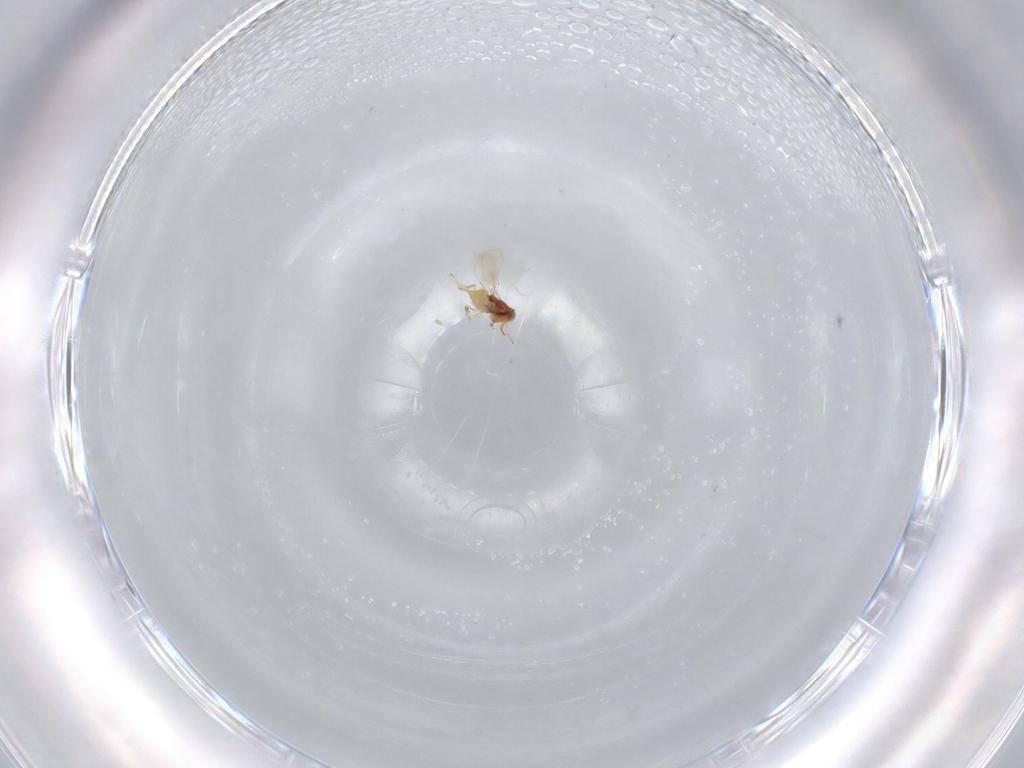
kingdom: Animalia
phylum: Arthropoda
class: Insecta
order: Hymenoptera
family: Aphelinidae
